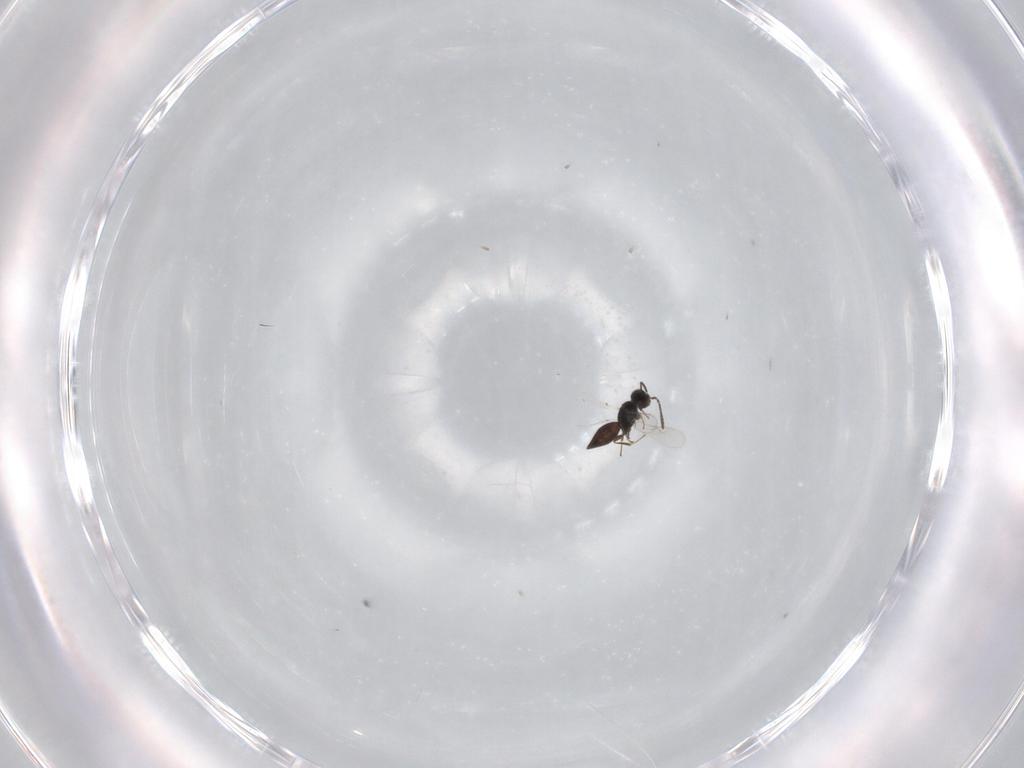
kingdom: Animalia
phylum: Arthropoda
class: Insecta
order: Hymenoptera
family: Scelionidae
